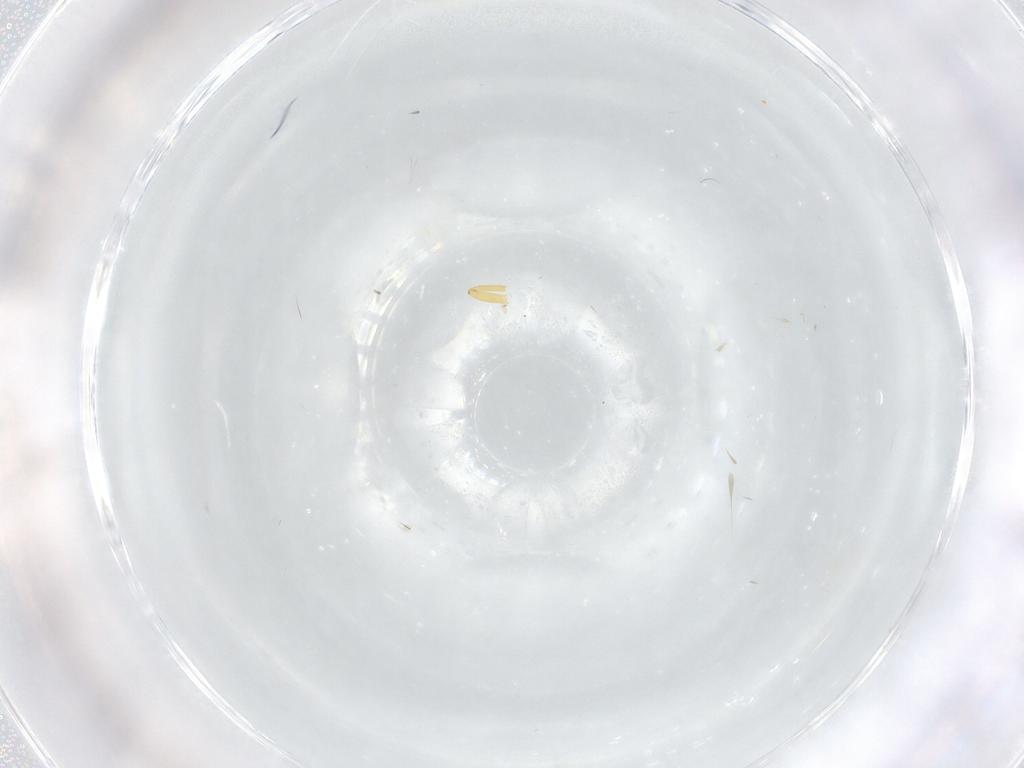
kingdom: Animalia
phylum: Arthropoda
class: Insecta
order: Hemiptera
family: Aleyrodidae
